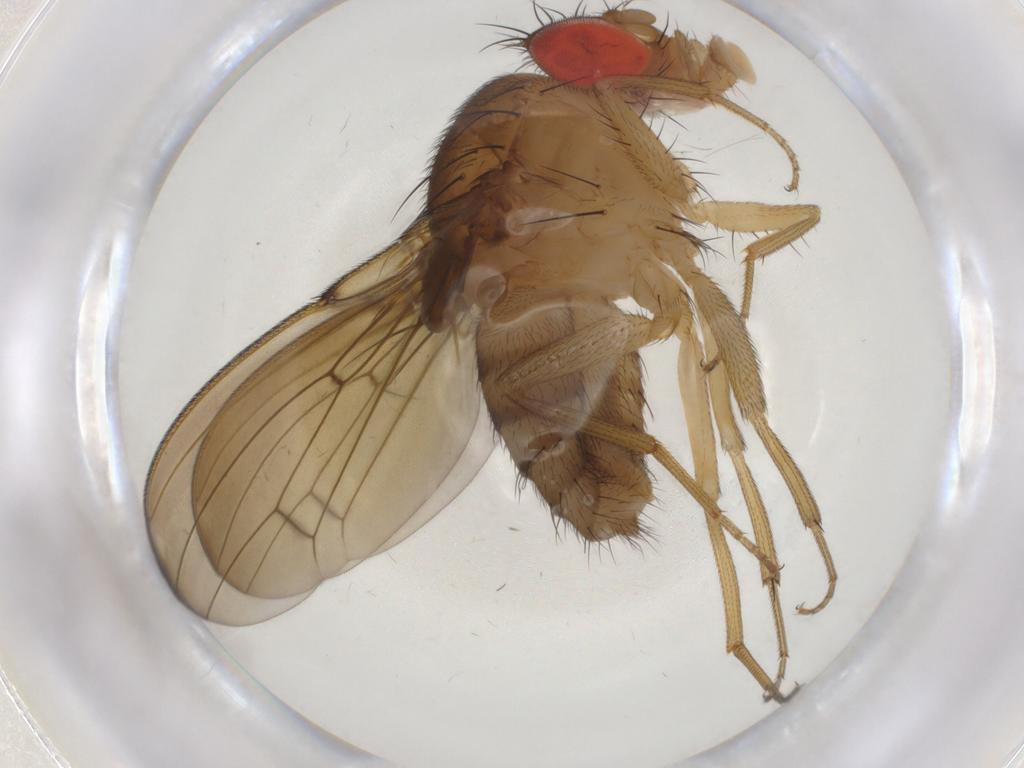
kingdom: Animalia
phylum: Arthropoda
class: Insecta
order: Diptera
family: Drosophilidae
